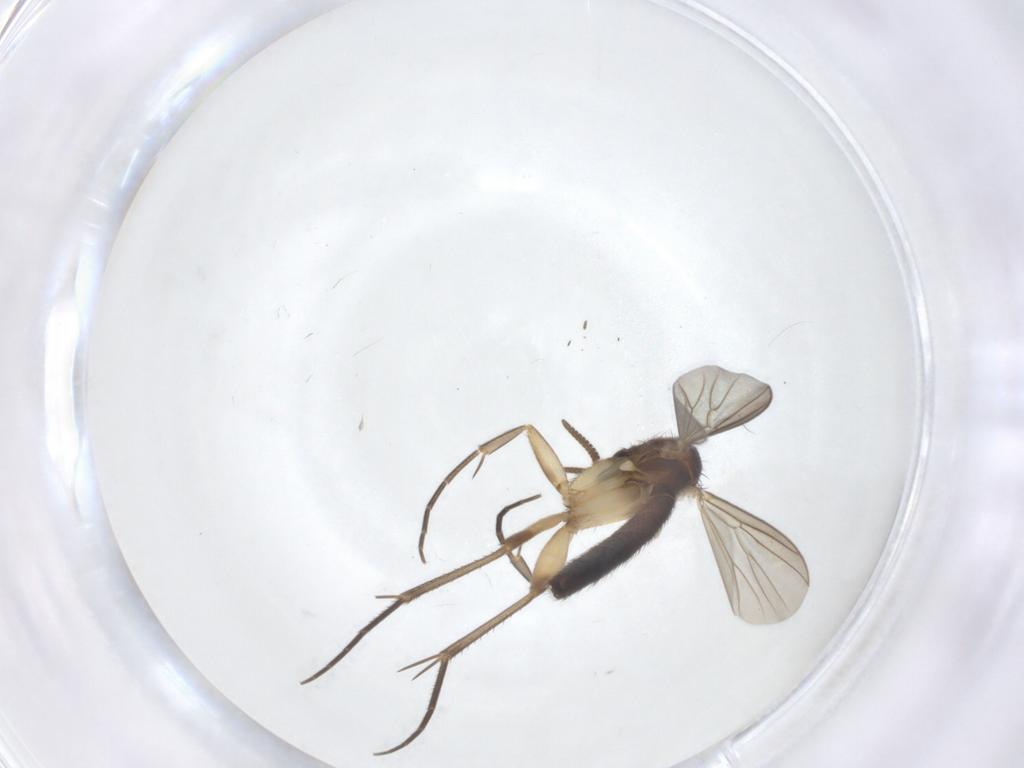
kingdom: Animalia
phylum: Arthropoda
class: Insecta
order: Diptera
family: Mycetophilidae
